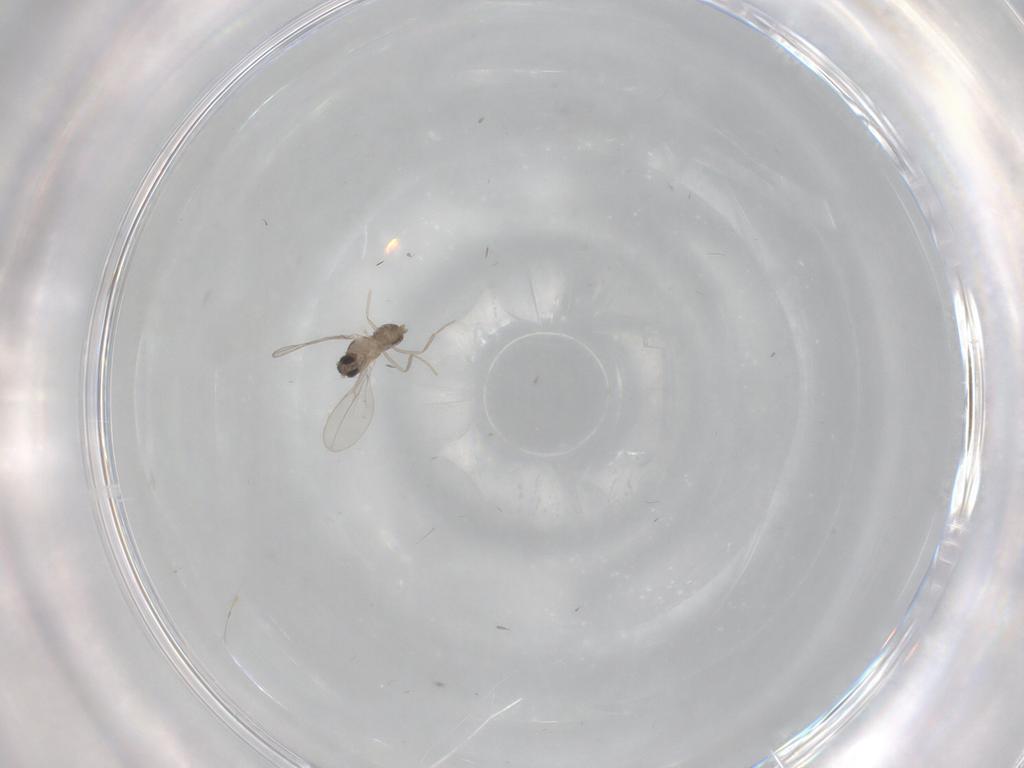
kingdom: Animalia
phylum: Arthropoda
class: Insecta
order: Diptera
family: Cecidomyiidae
